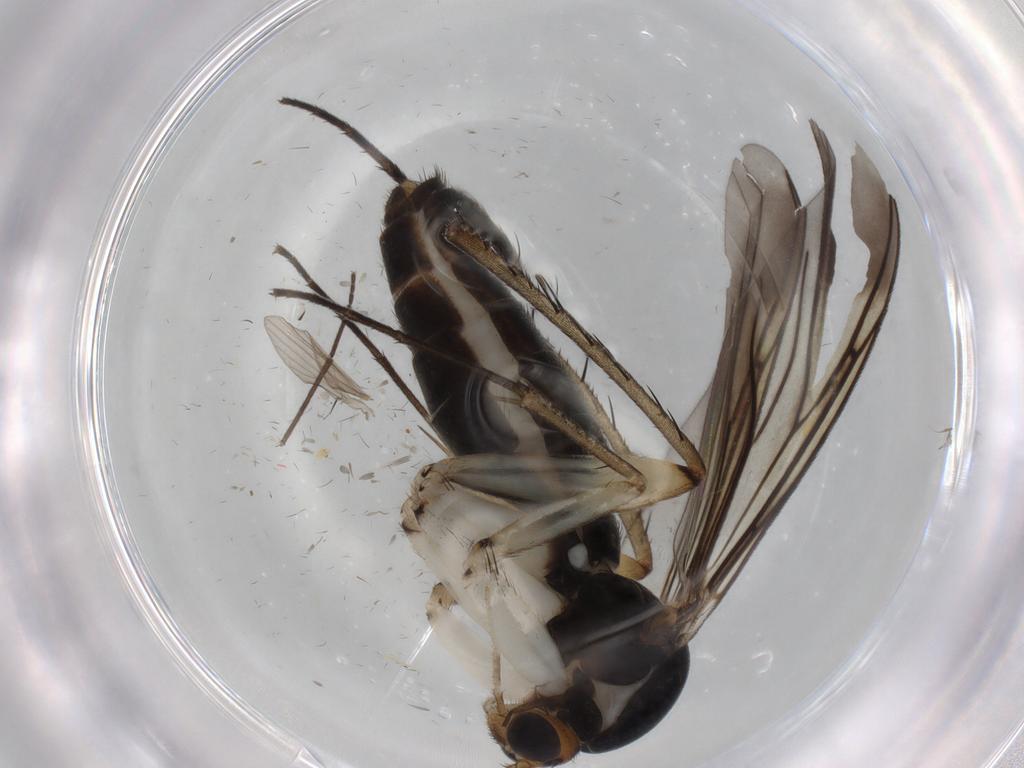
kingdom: Animalia
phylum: Arthropoda
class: Insecta
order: Diptera
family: Mycetophilidae
